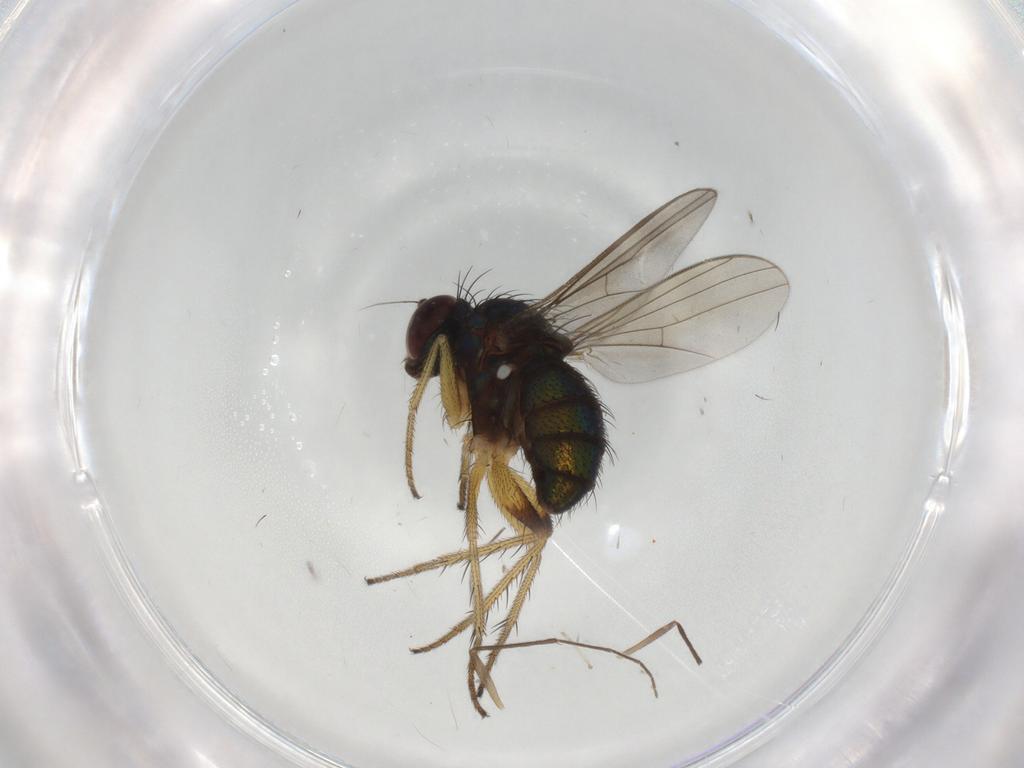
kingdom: Animalia
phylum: Arthropoda
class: Insecta
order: Diptera
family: Dolichopodidae
